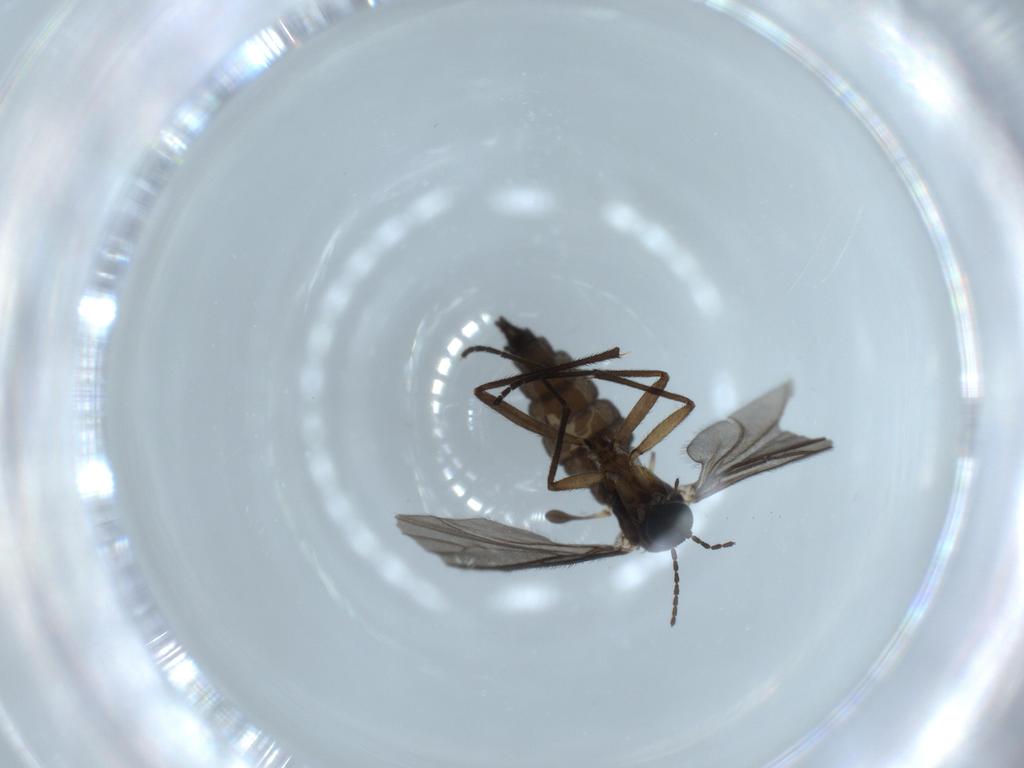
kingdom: Animalia
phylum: Arthropoda
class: Insecta
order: Diptera
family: Sciaridae
